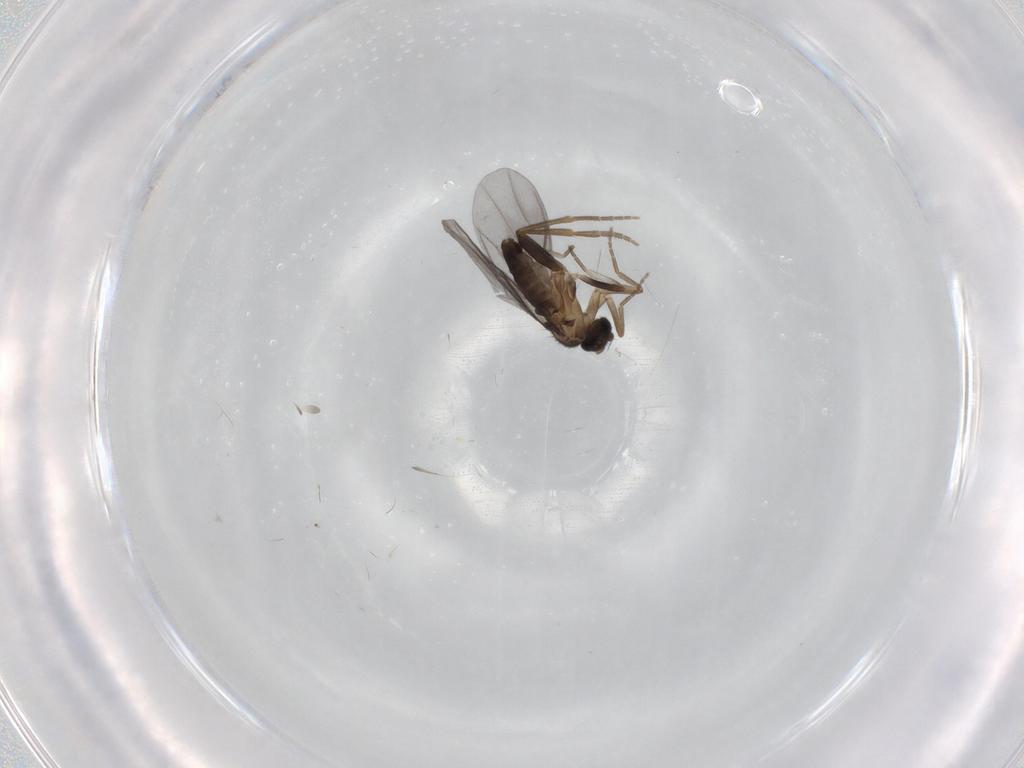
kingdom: Animalia
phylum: Arthropoda
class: Insecta
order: Diptera
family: Phoridae
